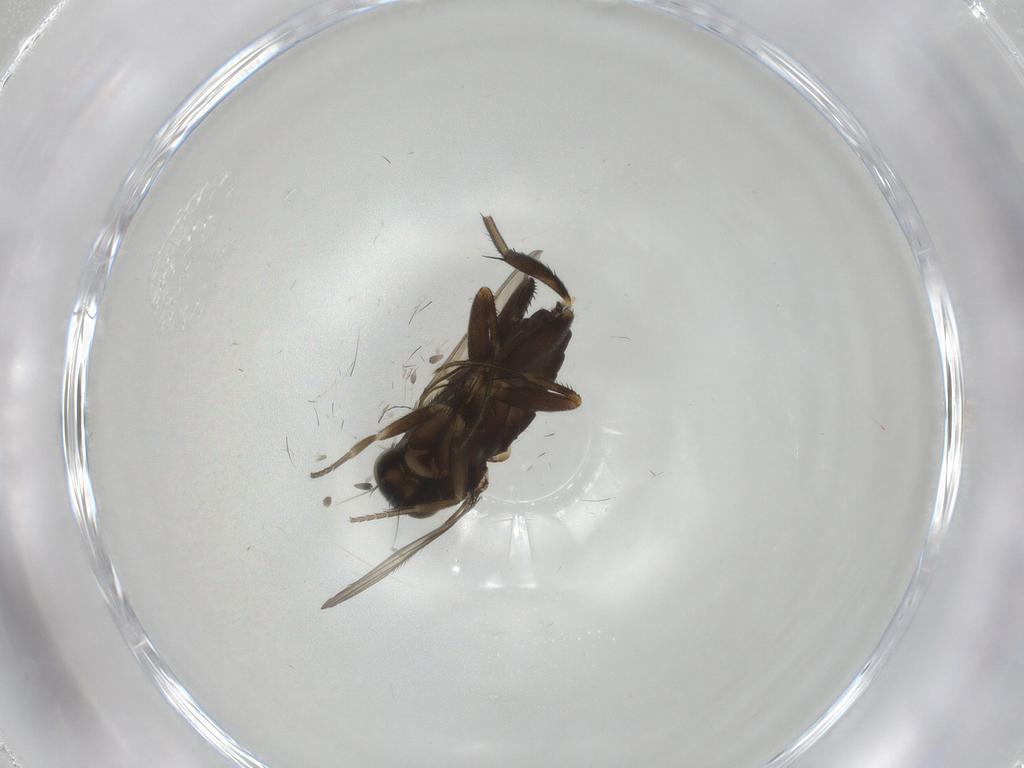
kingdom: Animalia
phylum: Arthropoda
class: Insecta
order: Diptera
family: Phoridae
